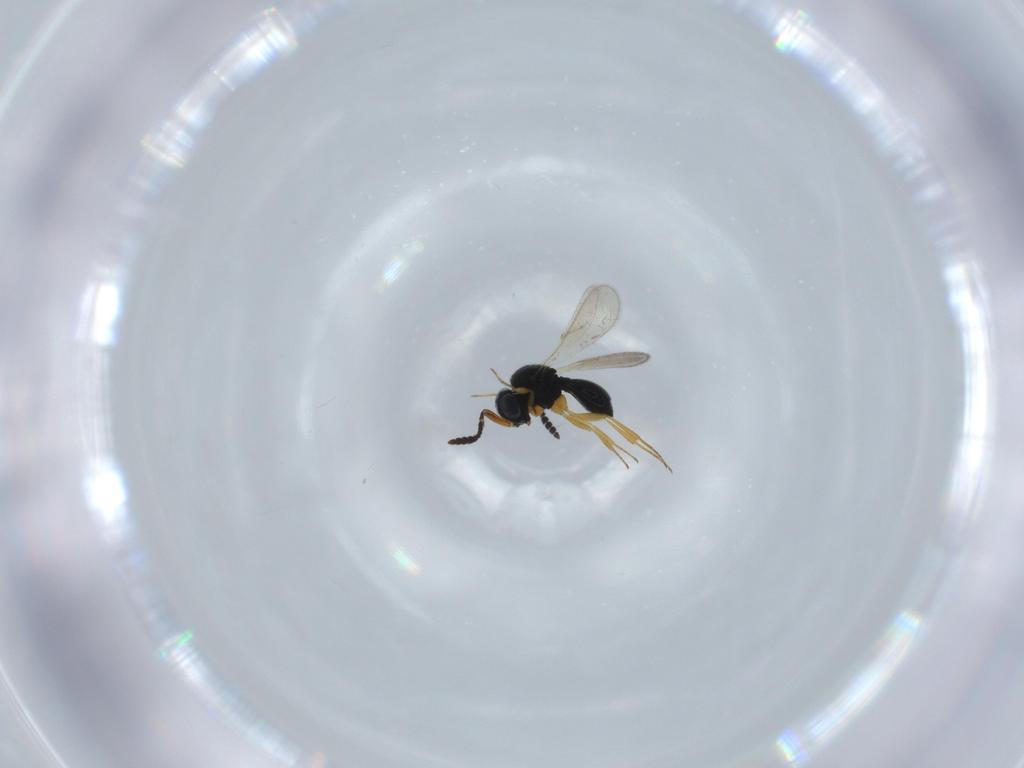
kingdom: Animalia
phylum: Arthropoda
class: Insecta
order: Hymenoptera
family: Scelionidae
